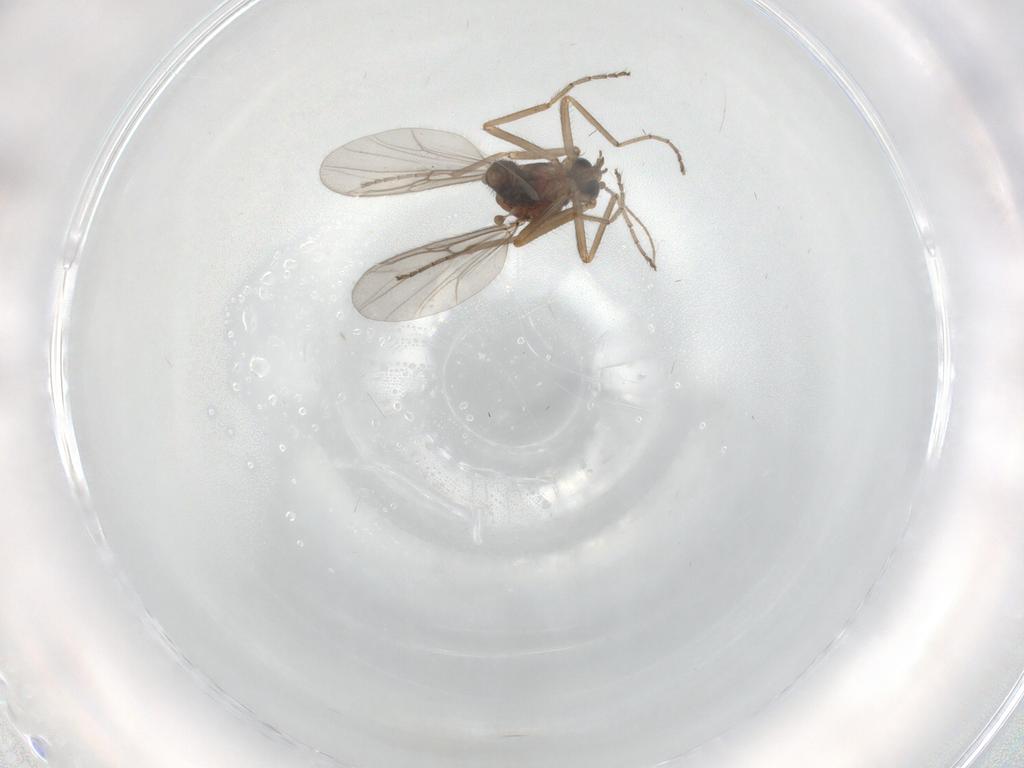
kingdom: Animalia
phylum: Arthropoda
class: Insecta
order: Diptera
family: Ceratopogonidae
